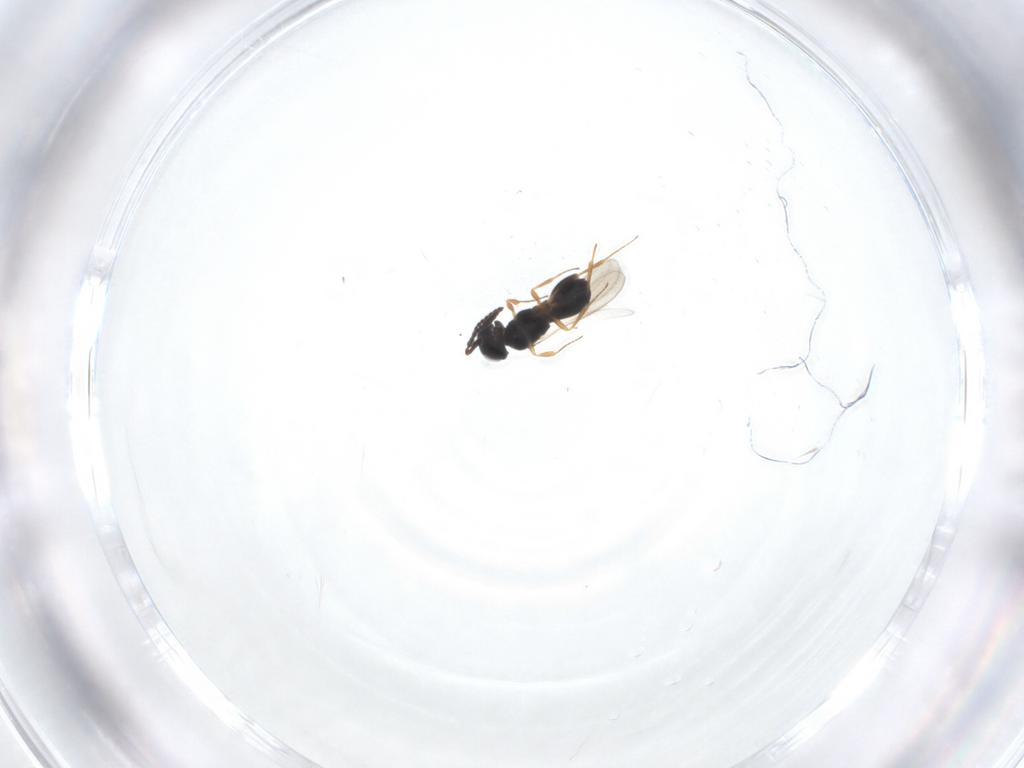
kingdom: Animalia
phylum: Arthropoda
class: Insecta
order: Hymenoptera
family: Scelionidae
